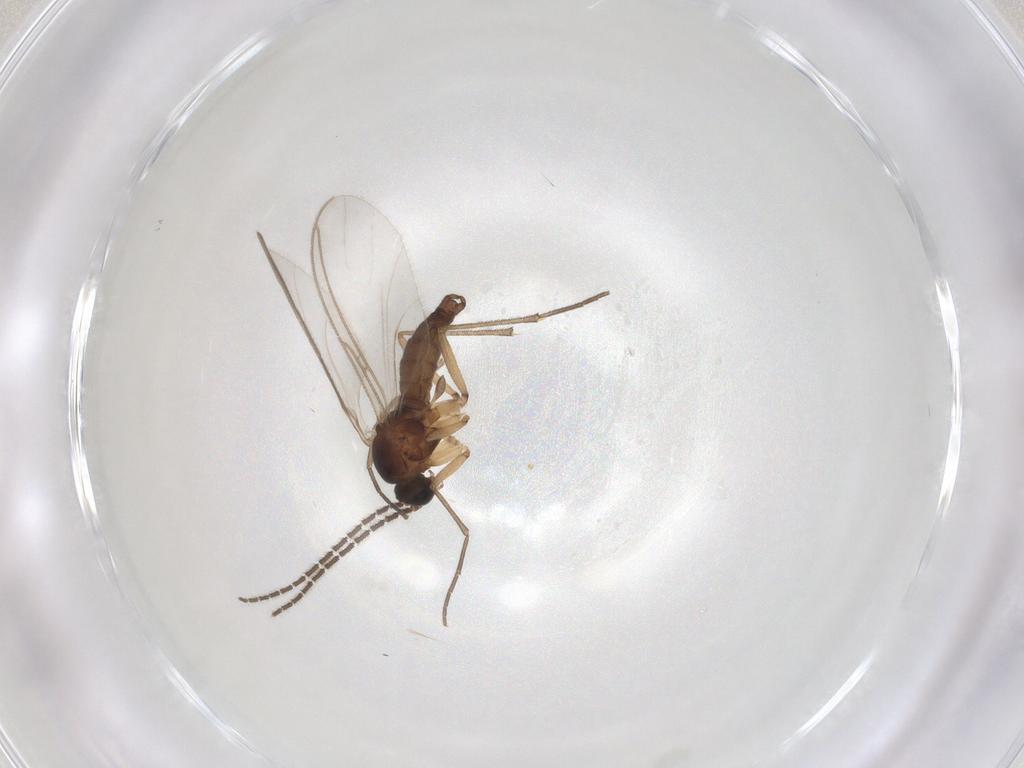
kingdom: Animalia
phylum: Arthropoda
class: Insecta
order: Diptera
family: Sciaridae
